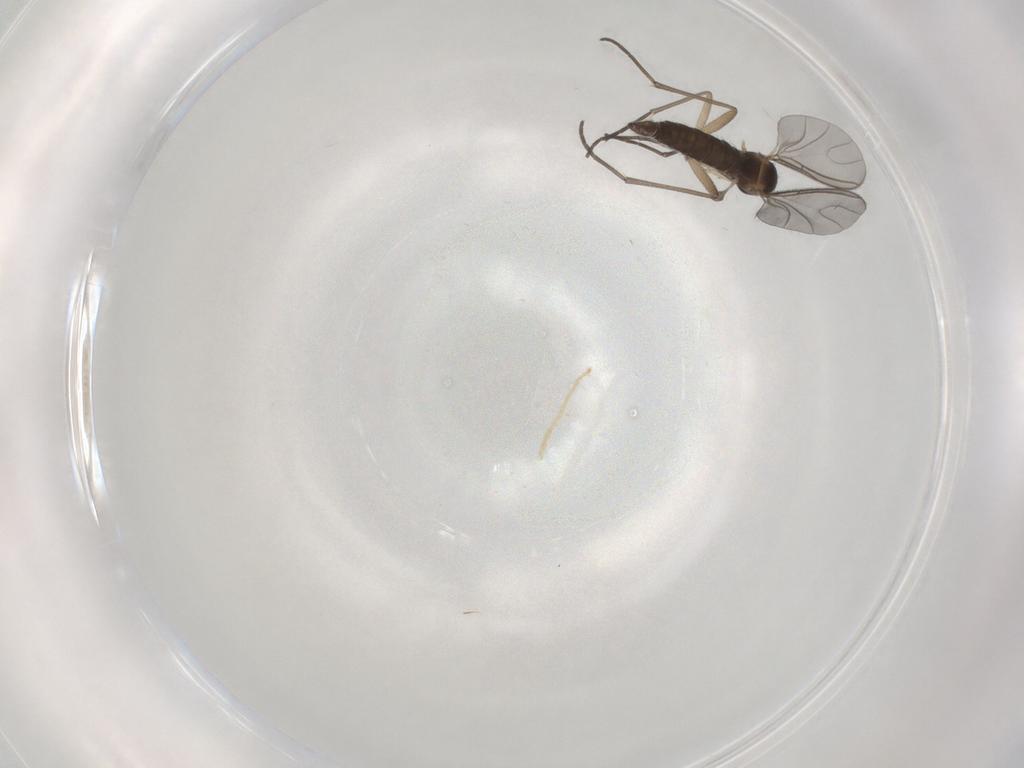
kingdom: Animalia
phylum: Arthropoda
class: Insecta
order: Diptera
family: Sciaridae
